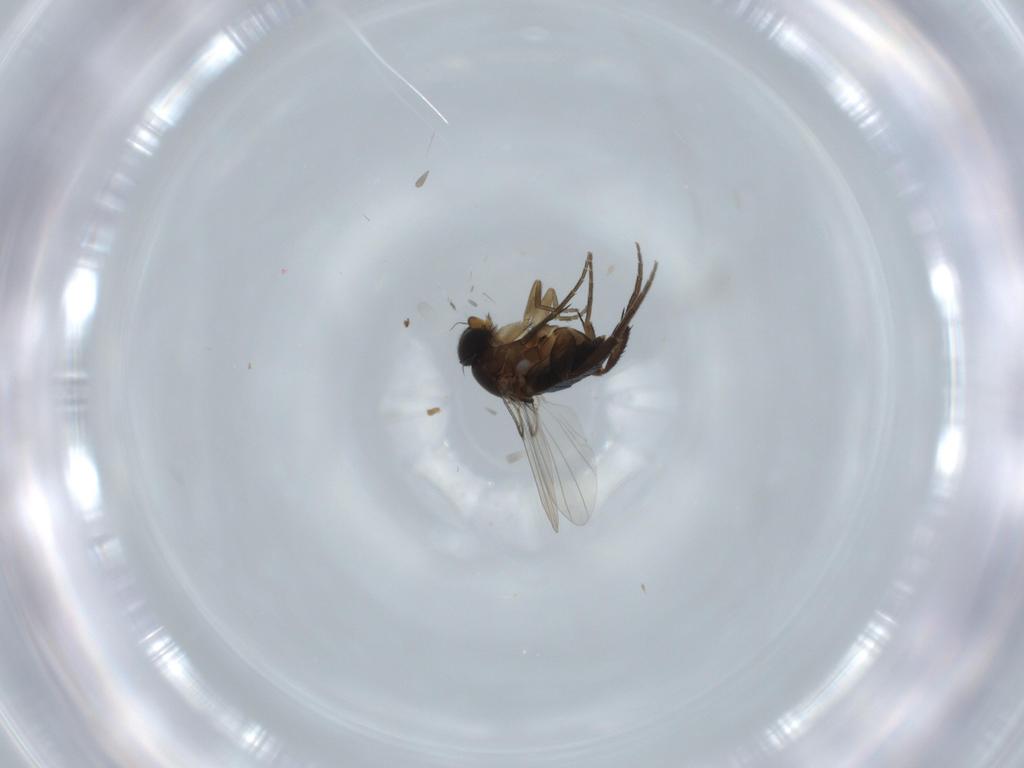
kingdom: Animalia
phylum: Arthropoda
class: Insecta
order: Diptera
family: Phoridae
